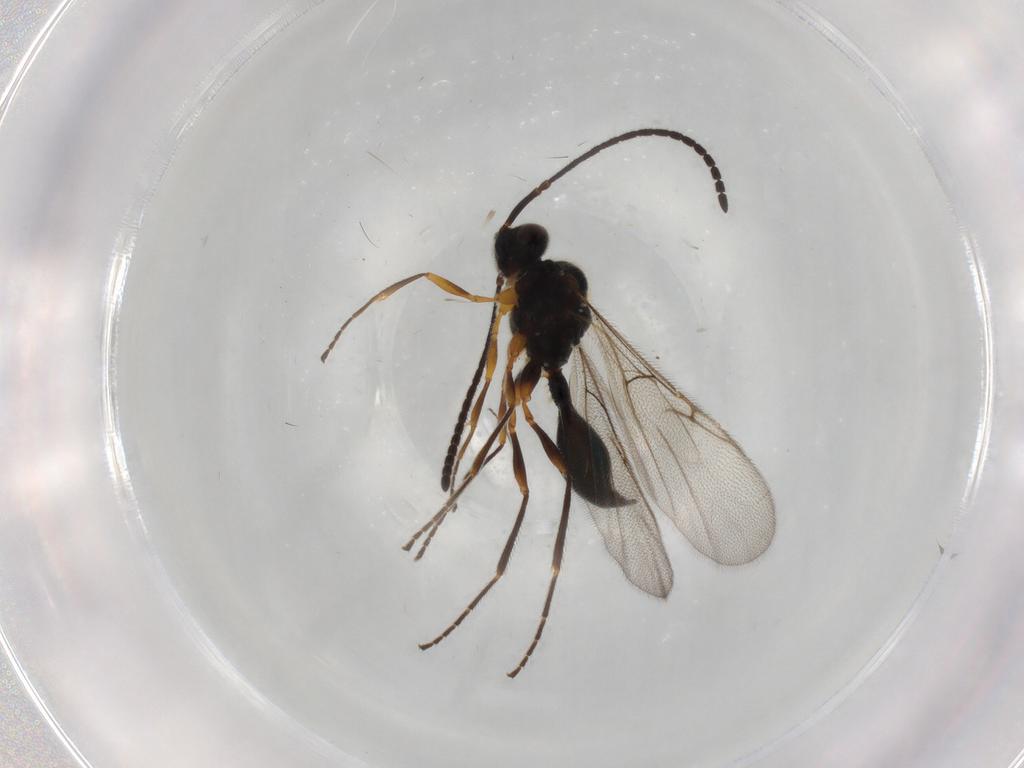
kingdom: Animalia
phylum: Arthropoda
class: Insecta
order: Hymenoptera
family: Diapriidae
